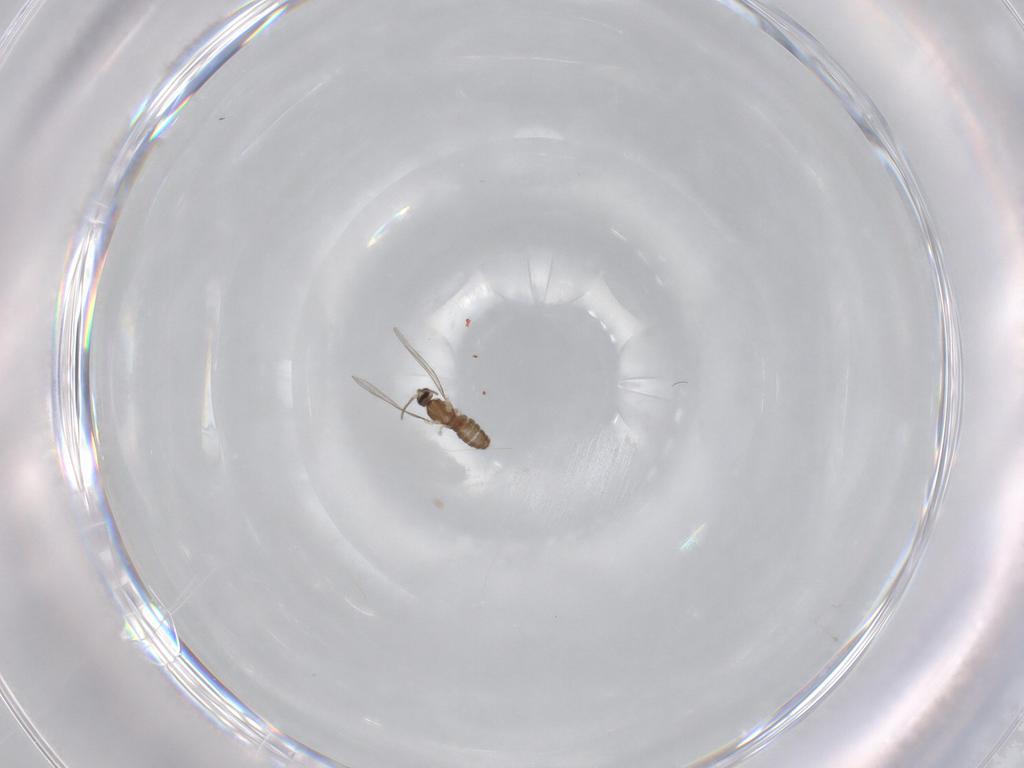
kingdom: Animalia
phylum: Arthropoda
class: Insecta
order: Diptera
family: Cecidomyiidae
